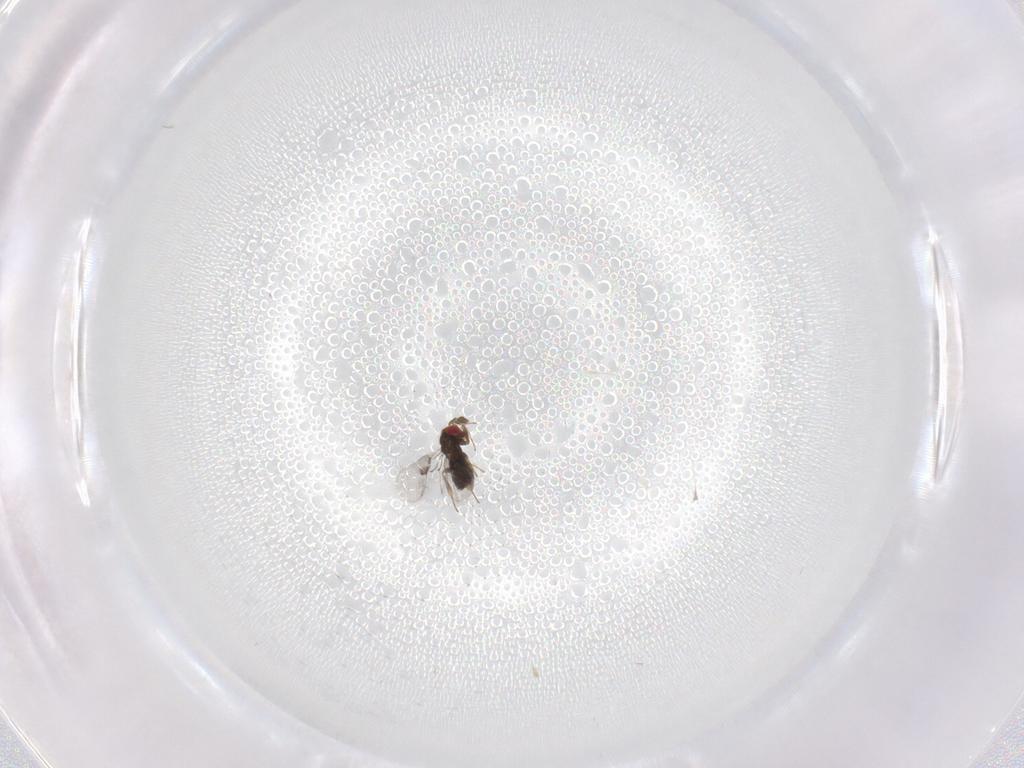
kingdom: Animalia
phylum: Arthropoda
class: Insecta
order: Hymenoptera
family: Trichogrammatidae
